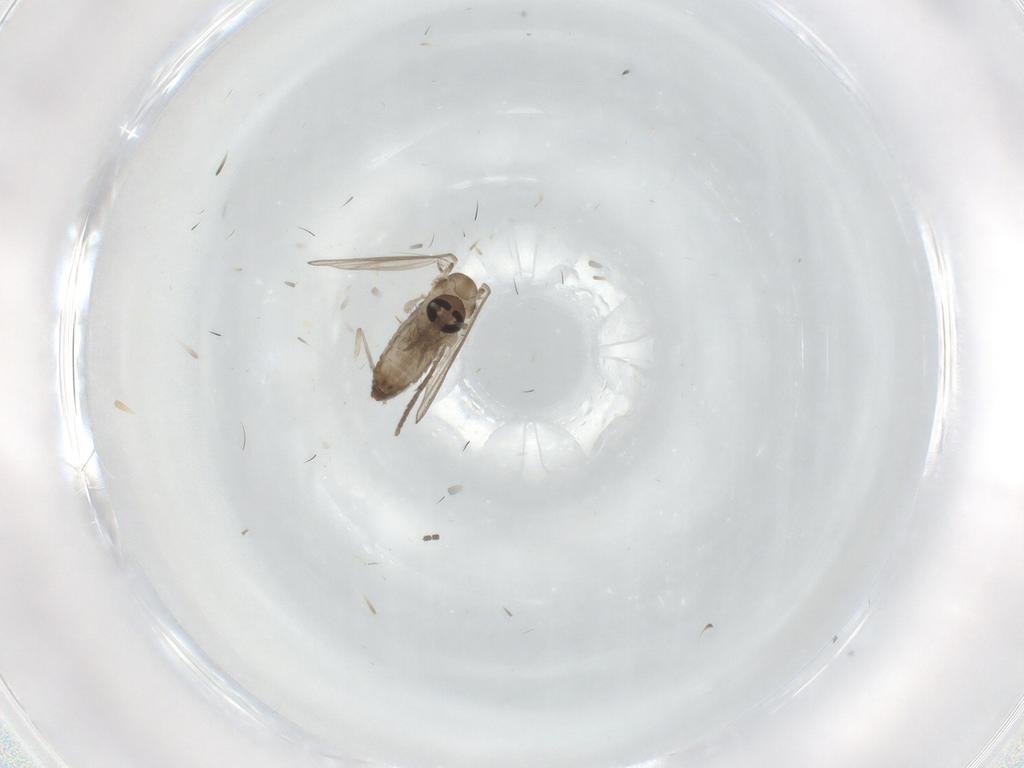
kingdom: Animalia
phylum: Arthropoda
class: Insecta
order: Diptera
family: Psychodidae
